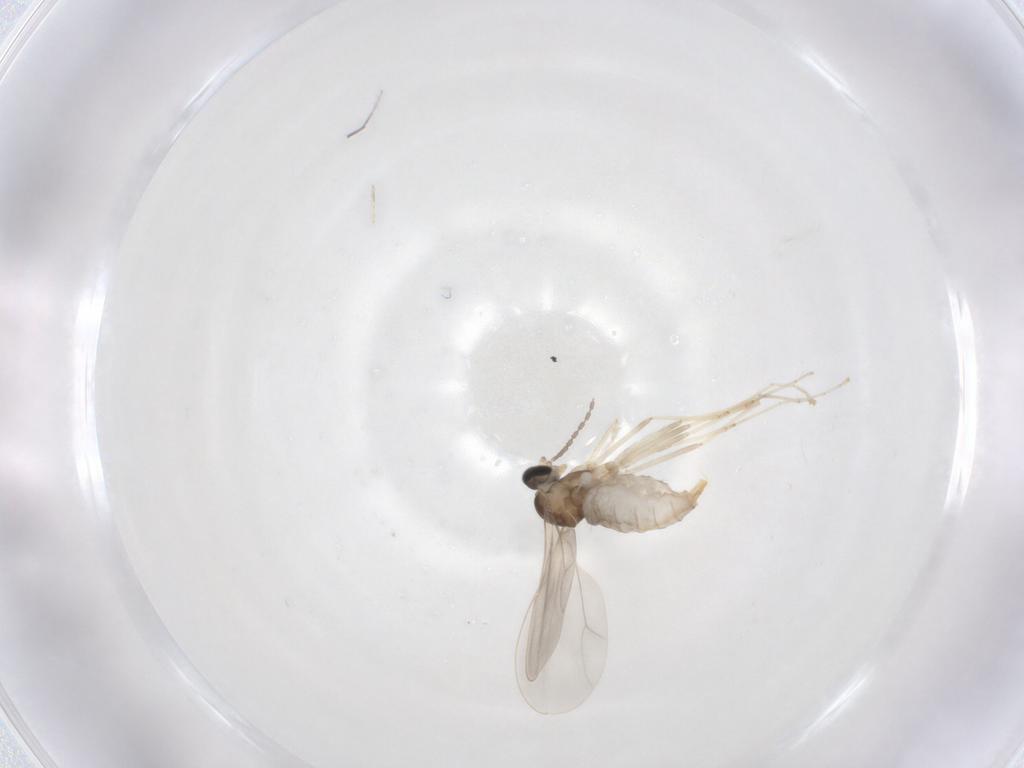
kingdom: Animalia
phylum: Arthropoda
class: Insecta
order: Diptera
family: Cecidomyiidae
